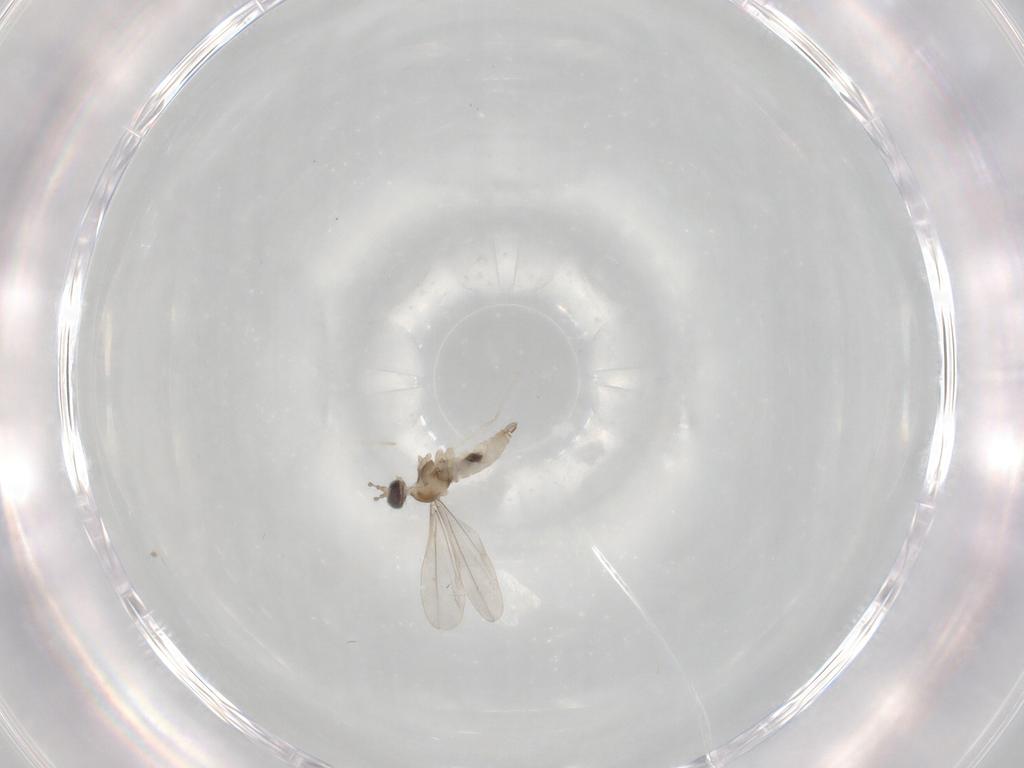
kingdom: Animalia
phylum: Arthropoda
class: Insecta
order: Diptera
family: Cecidomyiidae
